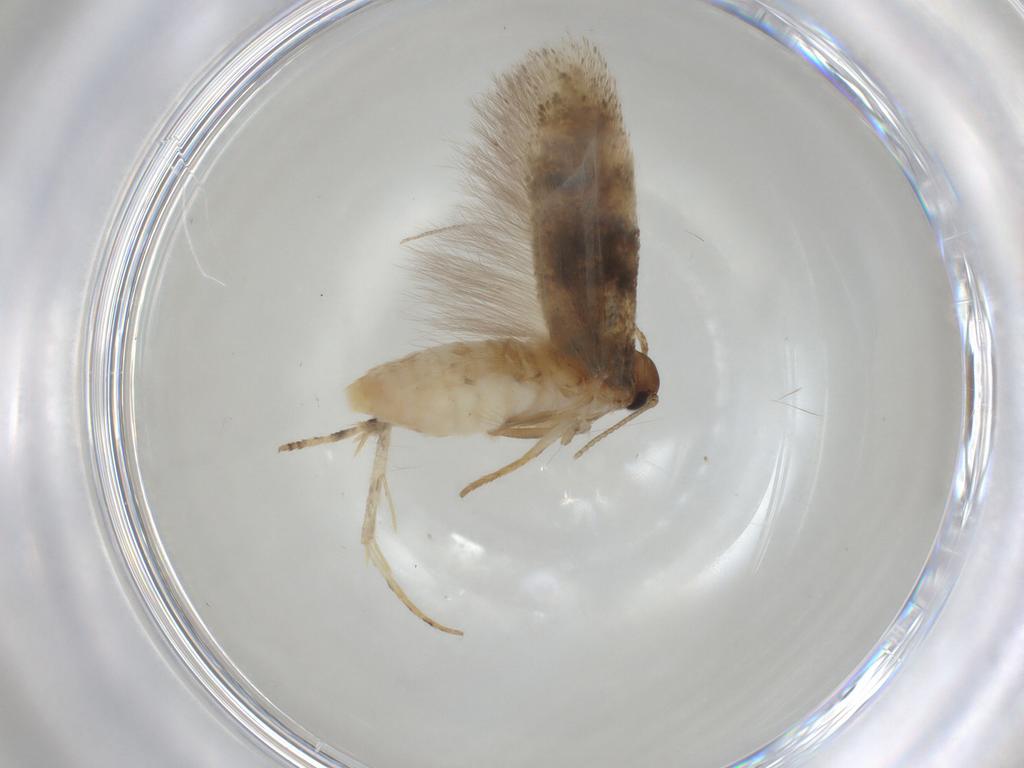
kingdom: Animalia
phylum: Arthropoda
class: Insecta
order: Lepidoptera
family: Gelechiidae
